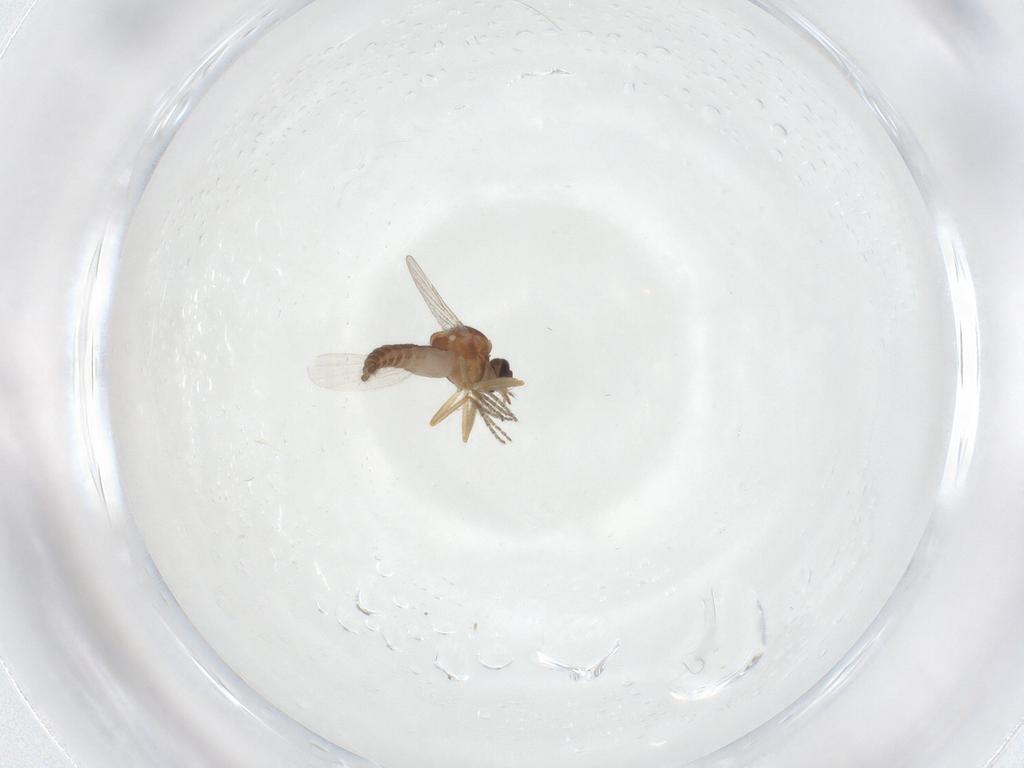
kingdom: Animalia
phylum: Arthropoda
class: Insecta
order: Diptera
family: Ceratopogonidae
